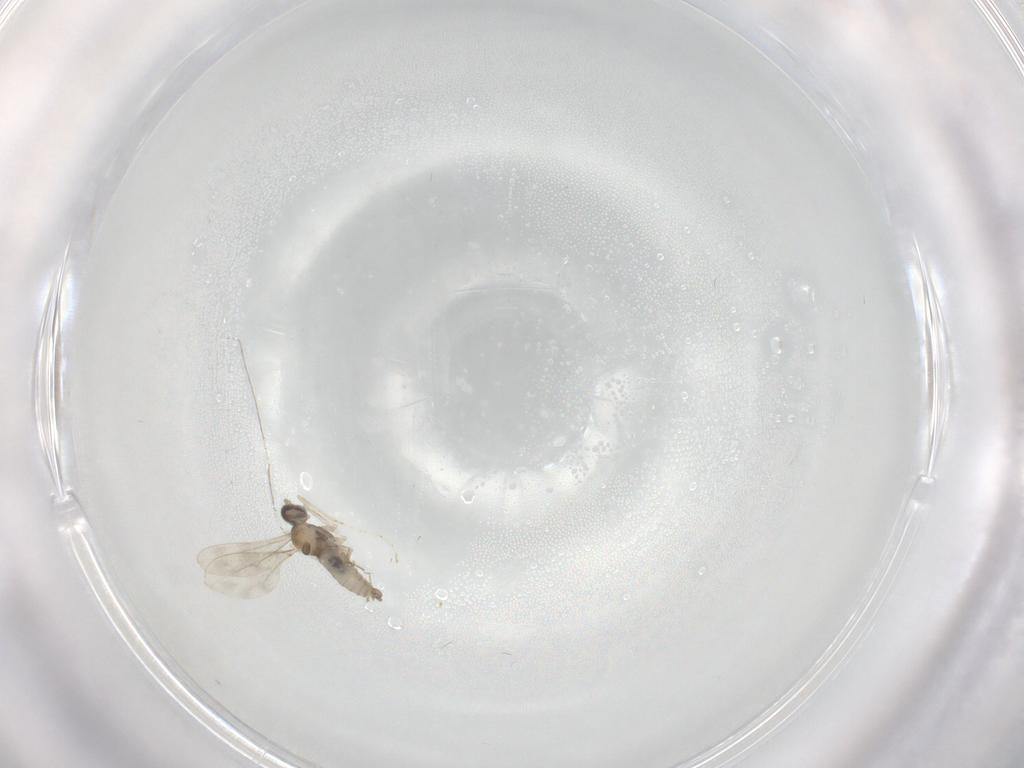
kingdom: Animalia
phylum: Arthropoda
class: Insecta
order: Diptera
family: Cecidomyiidae
